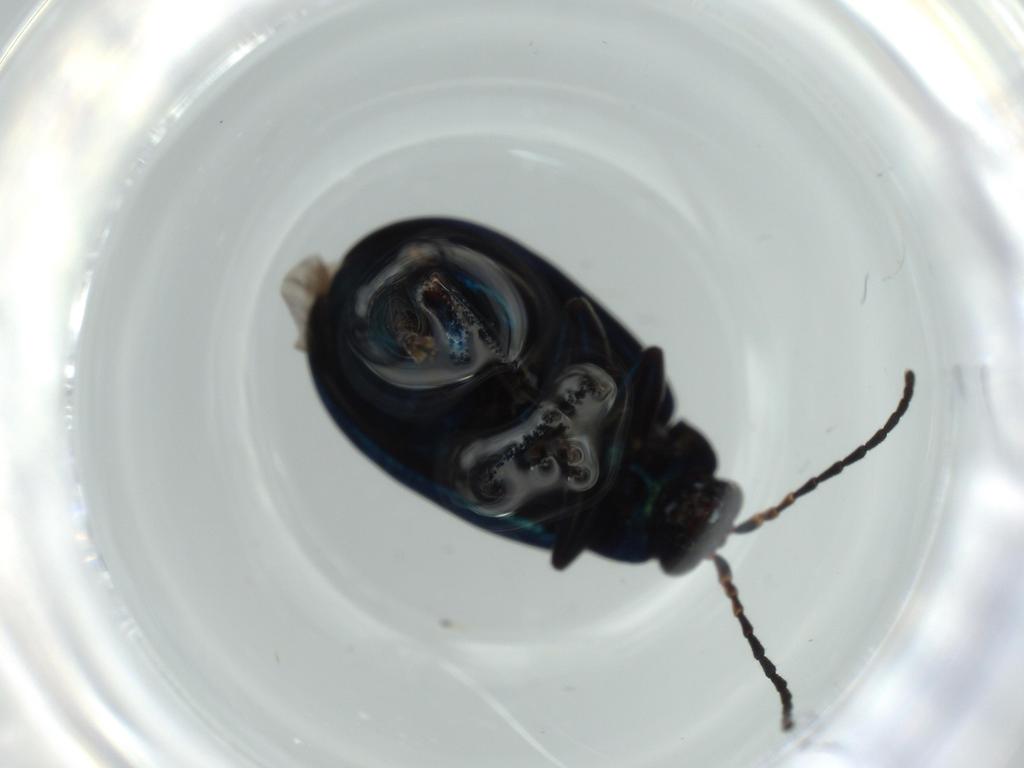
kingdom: Animalia
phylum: Arthropoda
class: Insecta
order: Coleoptera
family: Chrysomelidae
